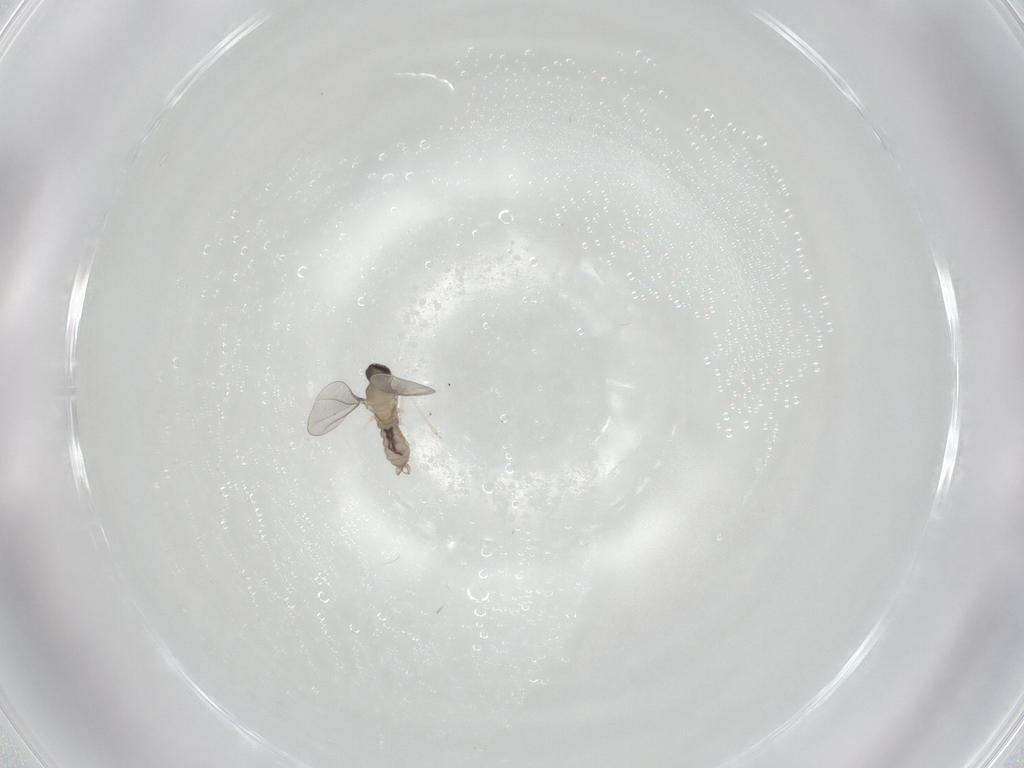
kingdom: Animalia
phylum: Arthropoda
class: Insecta
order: Diptera
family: Cecidomyiidae
